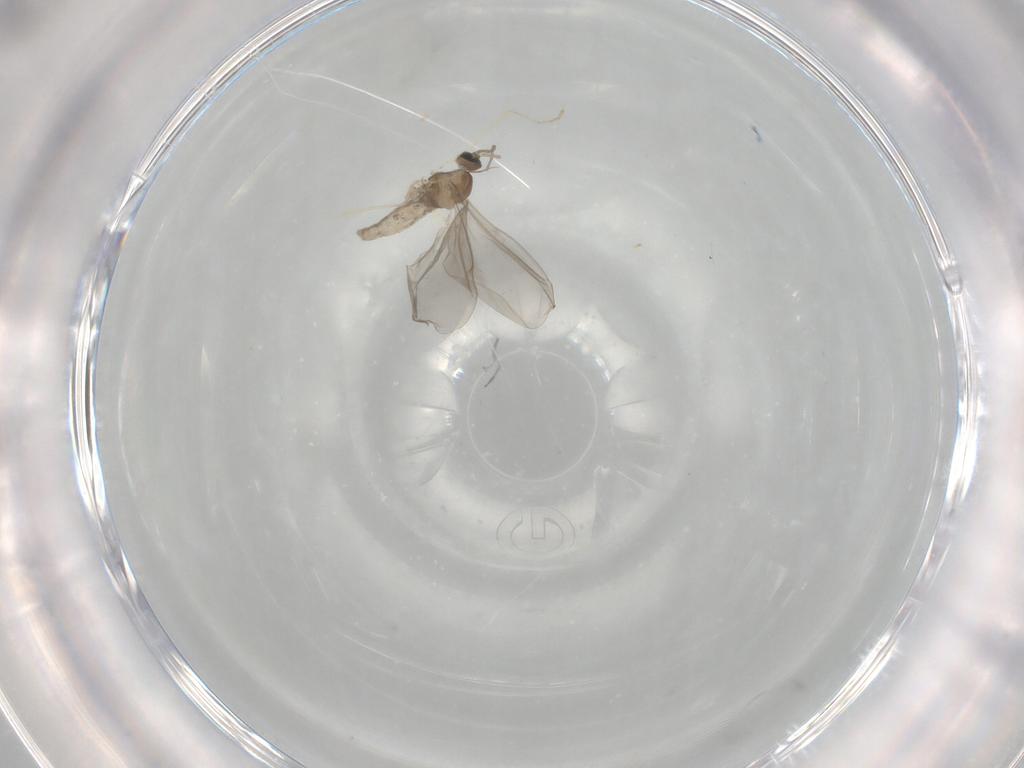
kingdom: Animalia
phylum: Arthropoda
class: Insecta
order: Diptera
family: Cecidomyiidae
